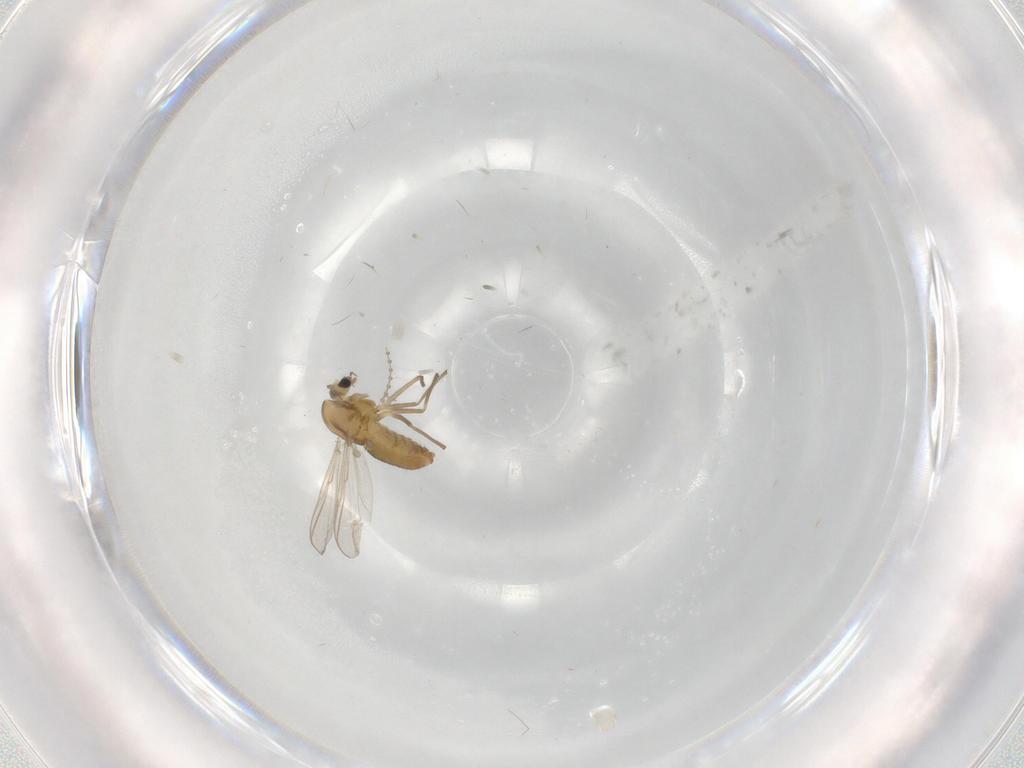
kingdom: Animalia
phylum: Arthropoda
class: Insecta
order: Diptera
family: Chironomidae
